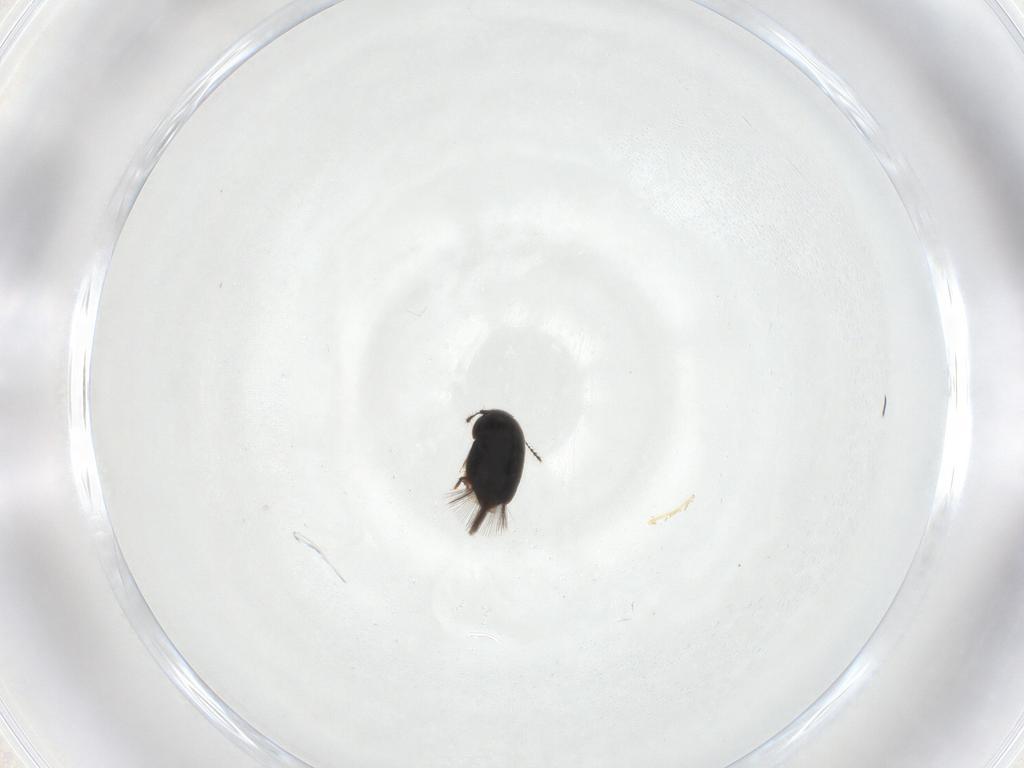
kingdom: Animalia
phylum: Arthropoda
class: Insecta
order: Coleoptera
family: Ptiliidae
